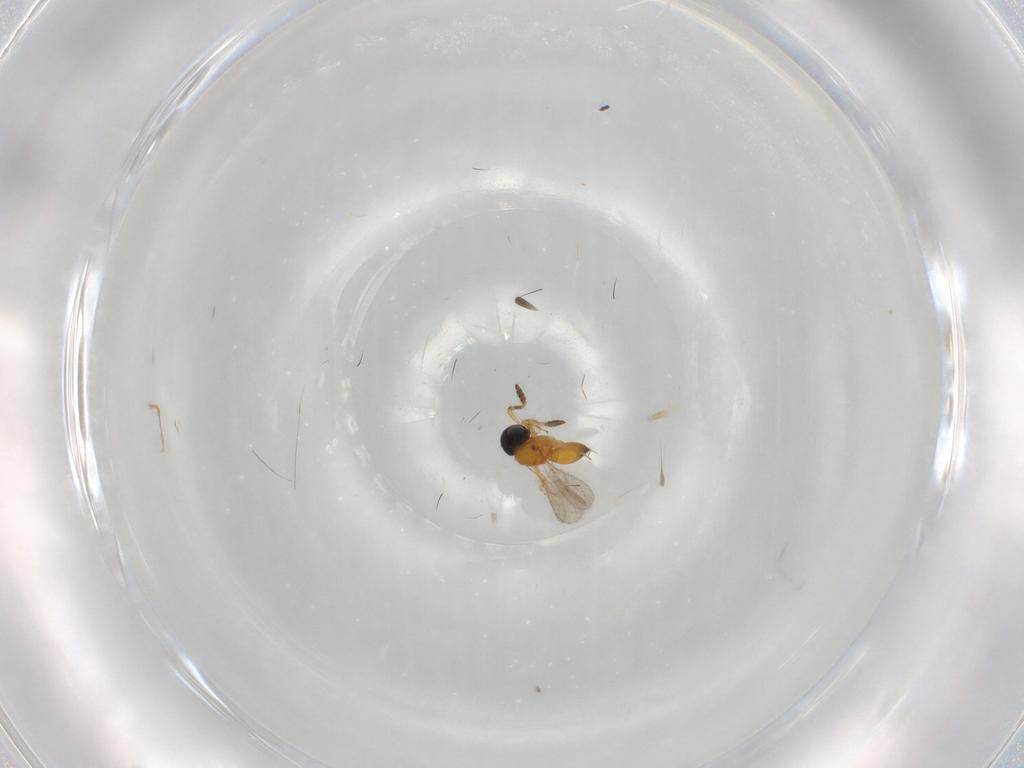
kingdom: Animalia
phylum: Arthropoda
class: Insecta
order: Hymenoptera
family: Scelionidae
